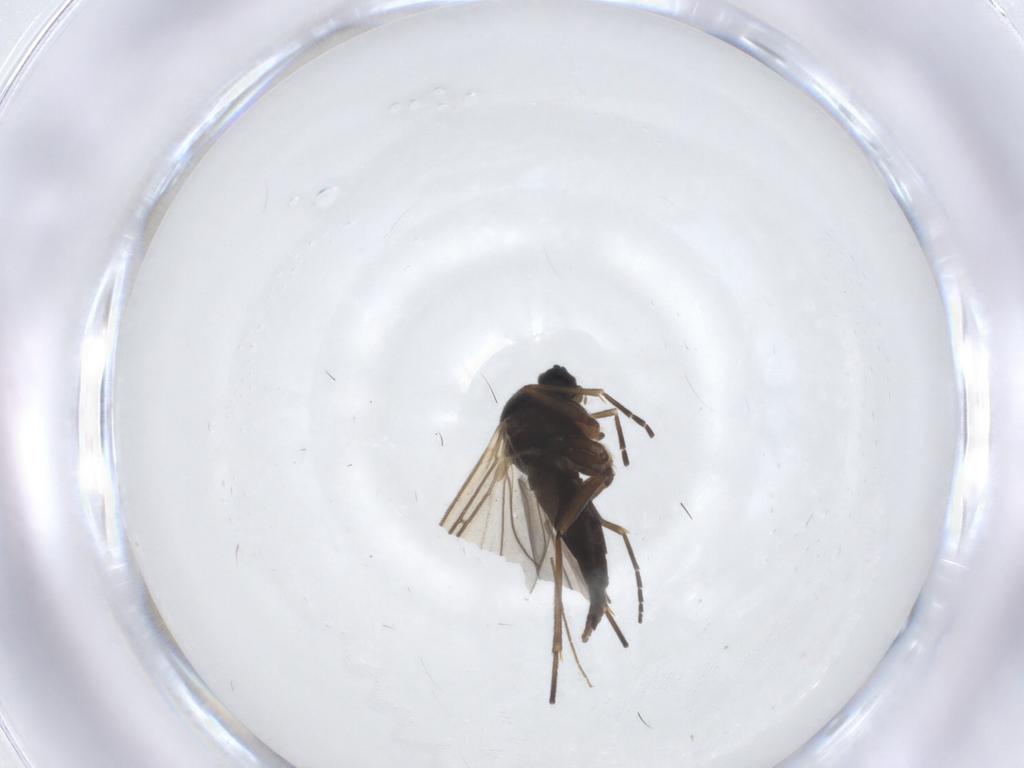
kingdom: Animalia
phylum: Arthropoda
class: Insecta
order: Diptera
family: Sciaridae
